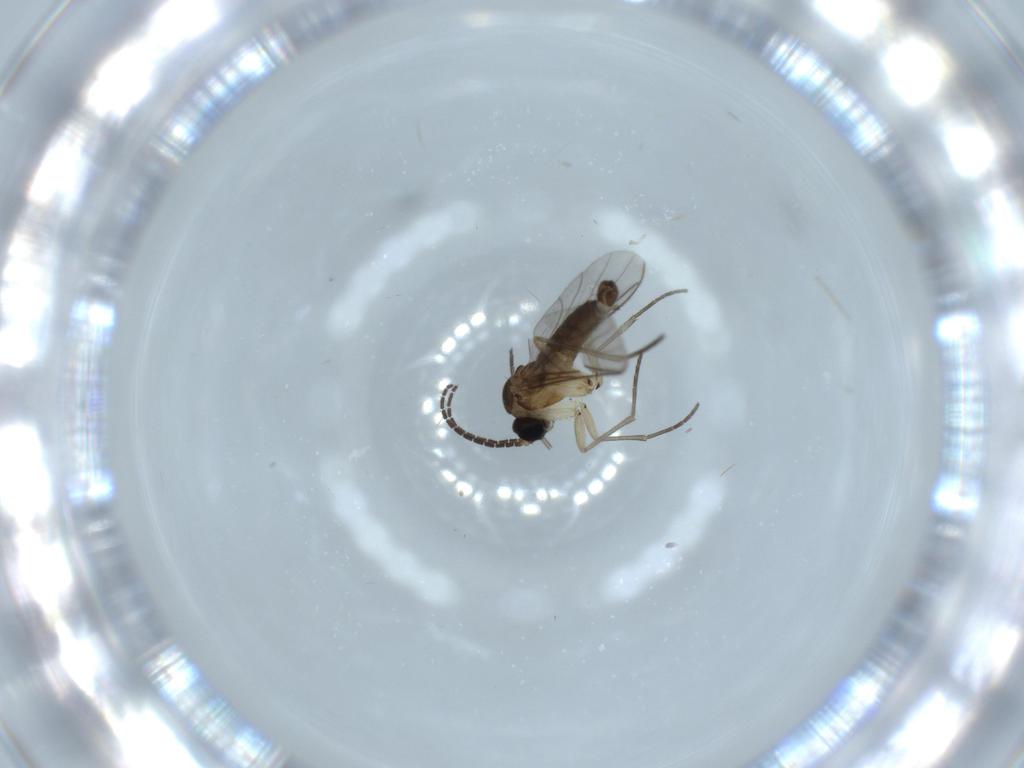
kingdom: Animalia
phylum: Arthropoda
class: Insecta
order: Diptera
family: Sciaridae
